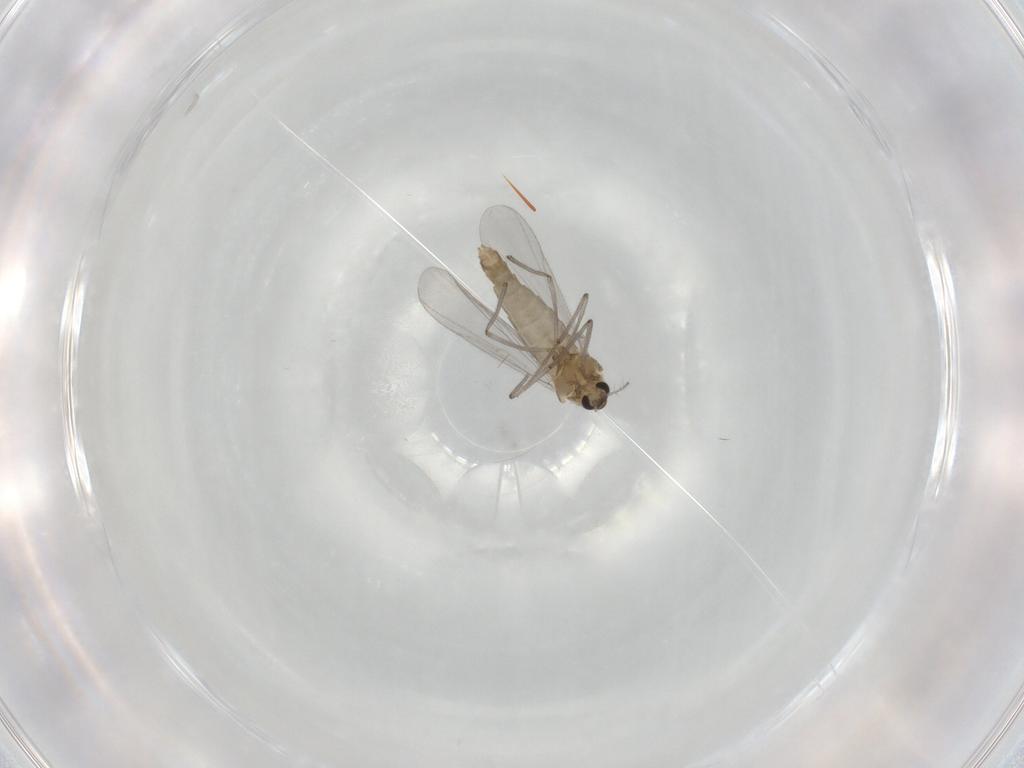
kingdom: Animalia
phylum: Arthropoda
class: Insecta
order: Diptera
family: Chironomidae
